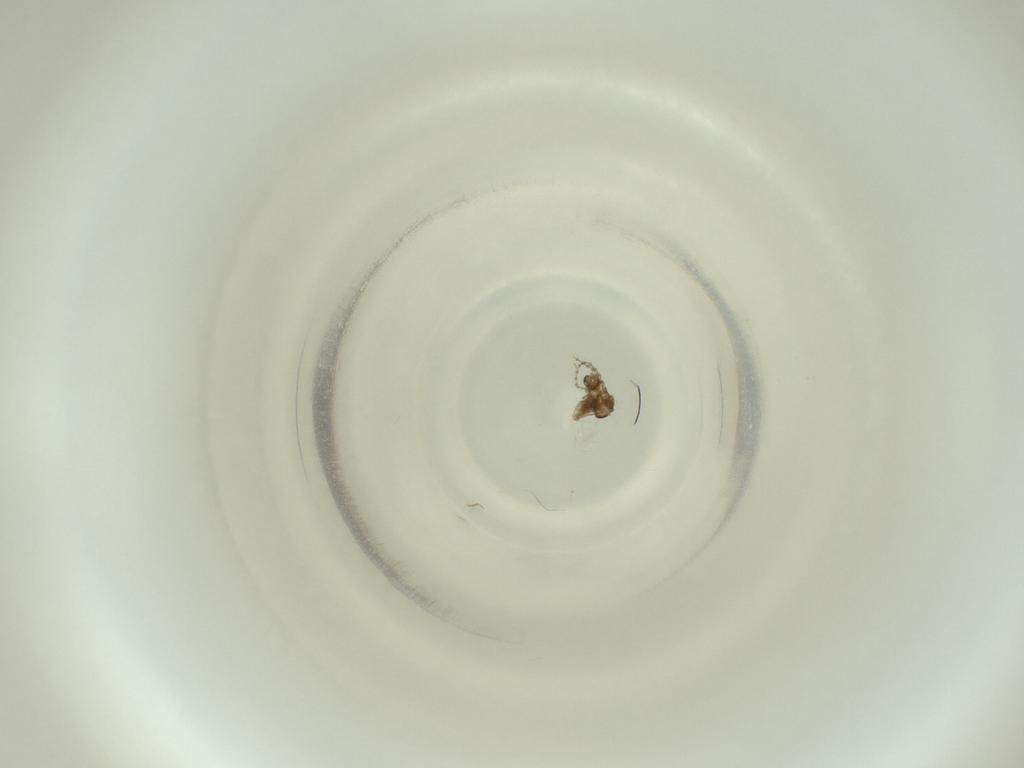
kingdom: Animalia
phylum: Arthropoda
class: Insecta
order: Diptera
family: Cecidomyiidae
